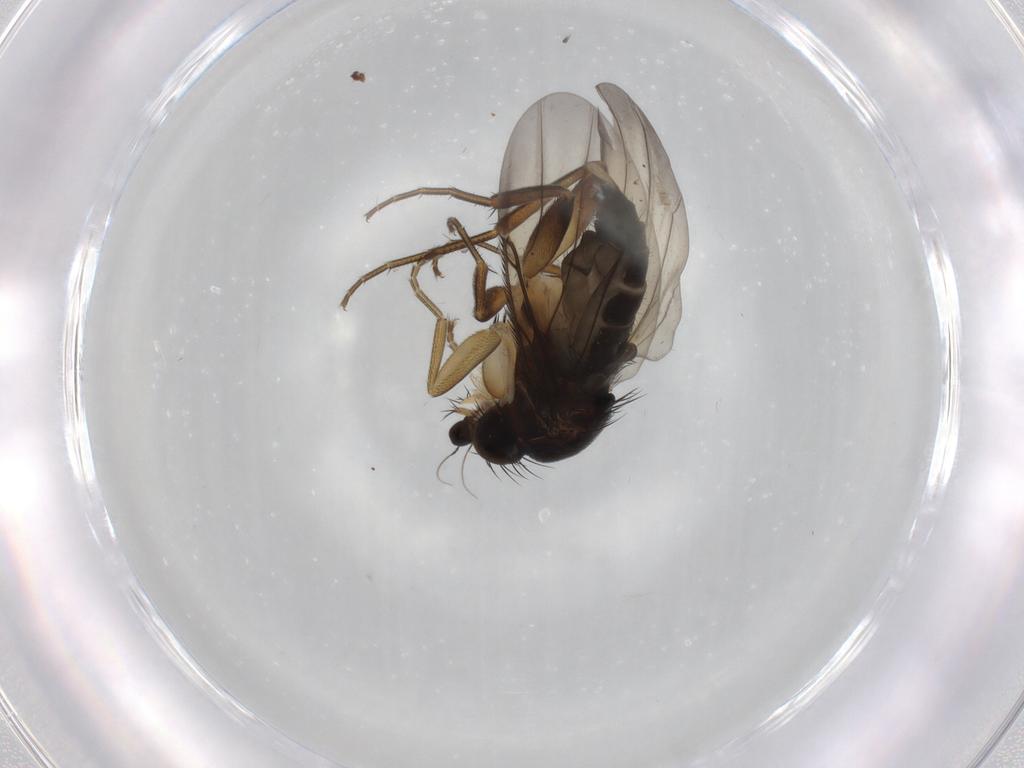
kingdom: Animalia
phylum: Arthropoda
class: Insecta
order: Diptera
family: Phoridae
